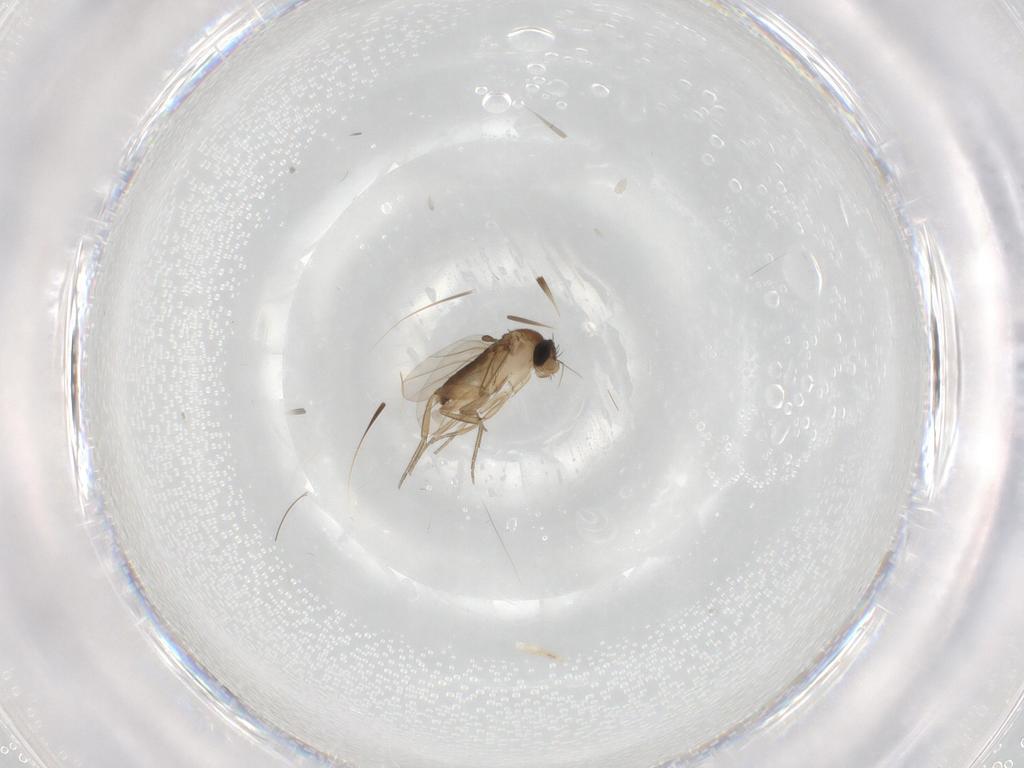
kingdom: Animalia
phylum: Arthropoda
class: Insecta
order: Diptera
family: Phoridae
